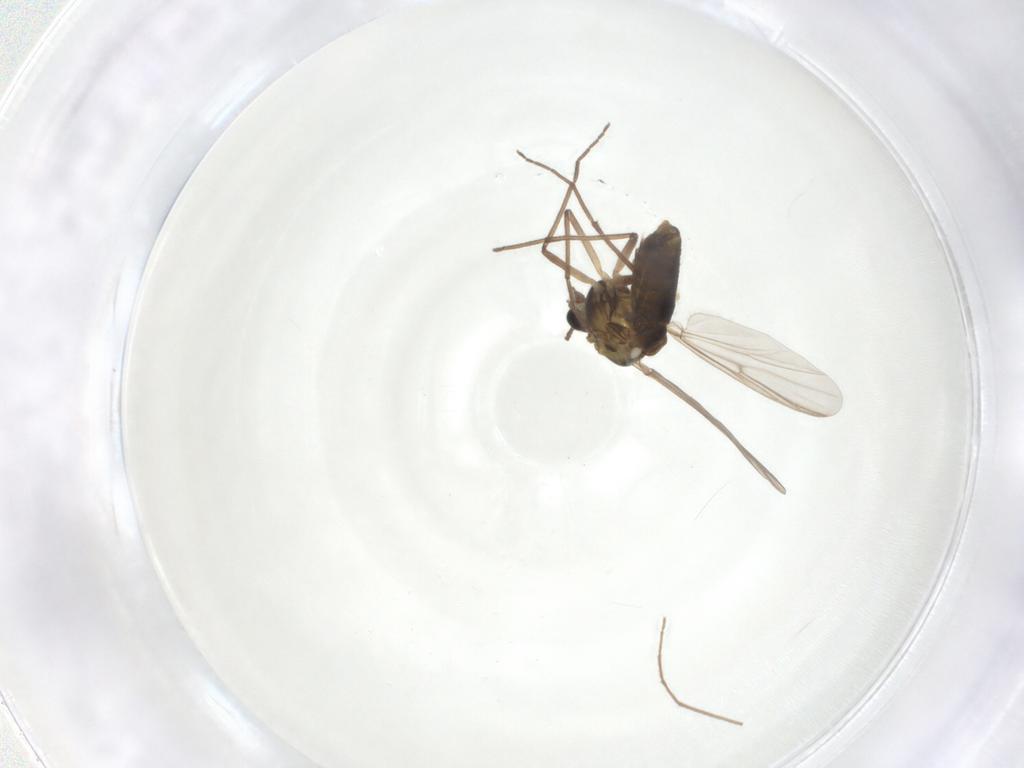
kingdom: Animalia
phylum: Arthropoda
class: Insecta
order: Diptera
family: Chironomidae
